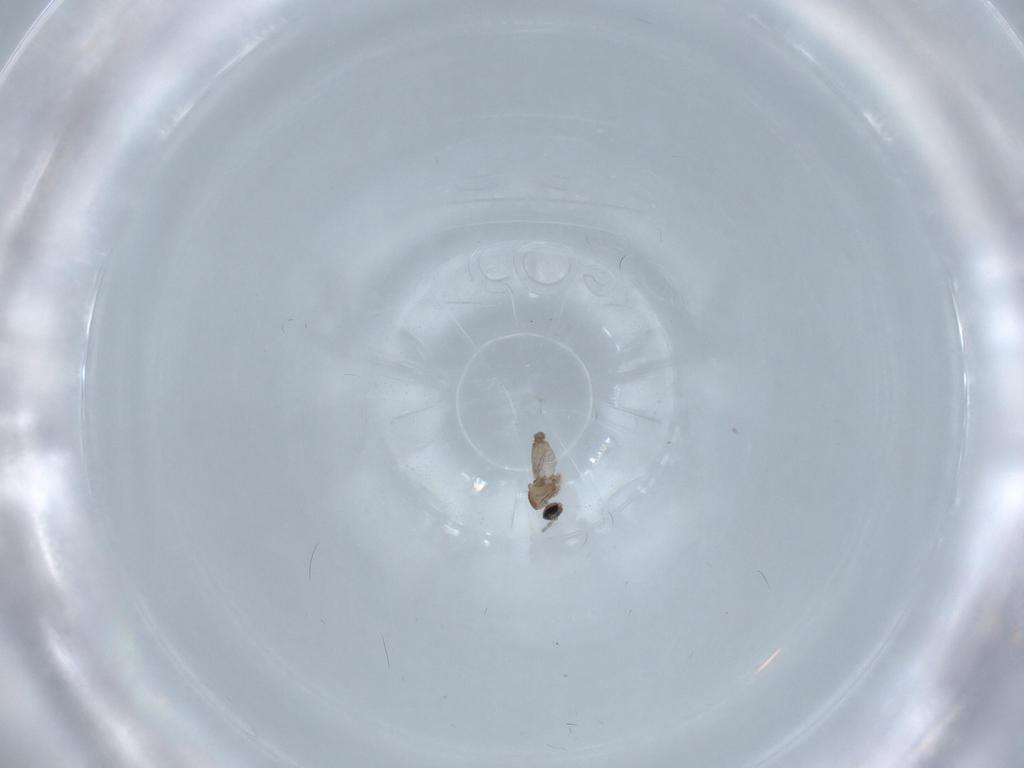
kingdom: Animalia
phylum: Arthropoda
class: Insecta
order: Diptera
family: Cecidomyiidae
